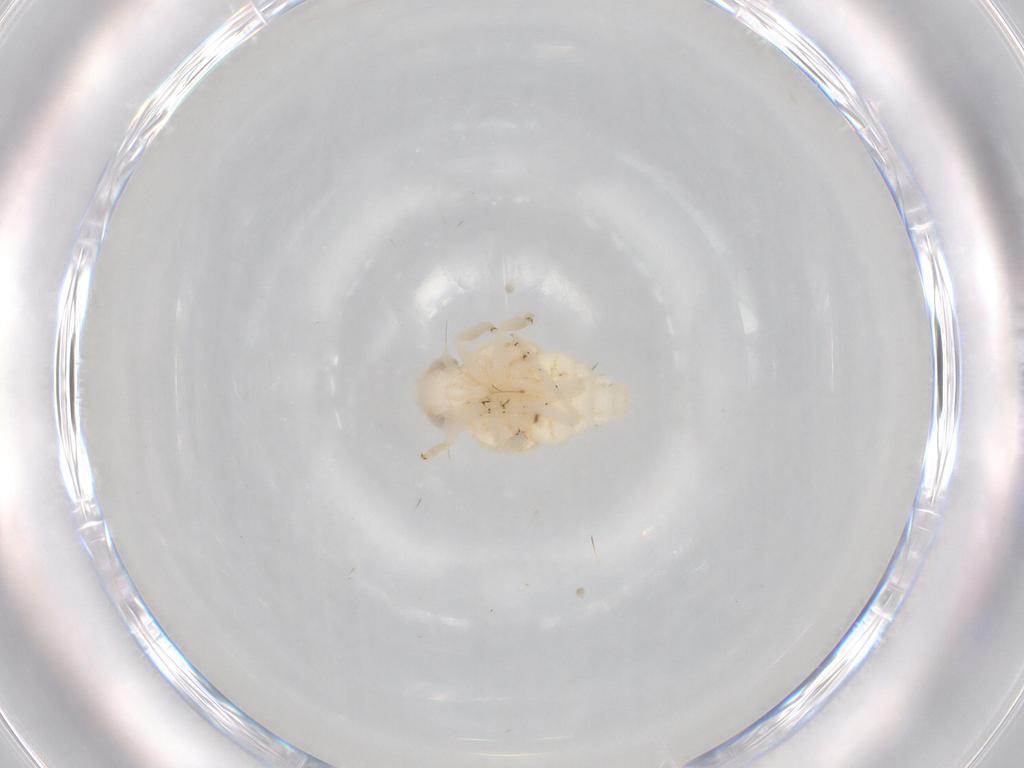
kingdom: Animalia
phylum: Arthropoda
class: Insecta
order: Hemiptera
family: Nogodinidae
